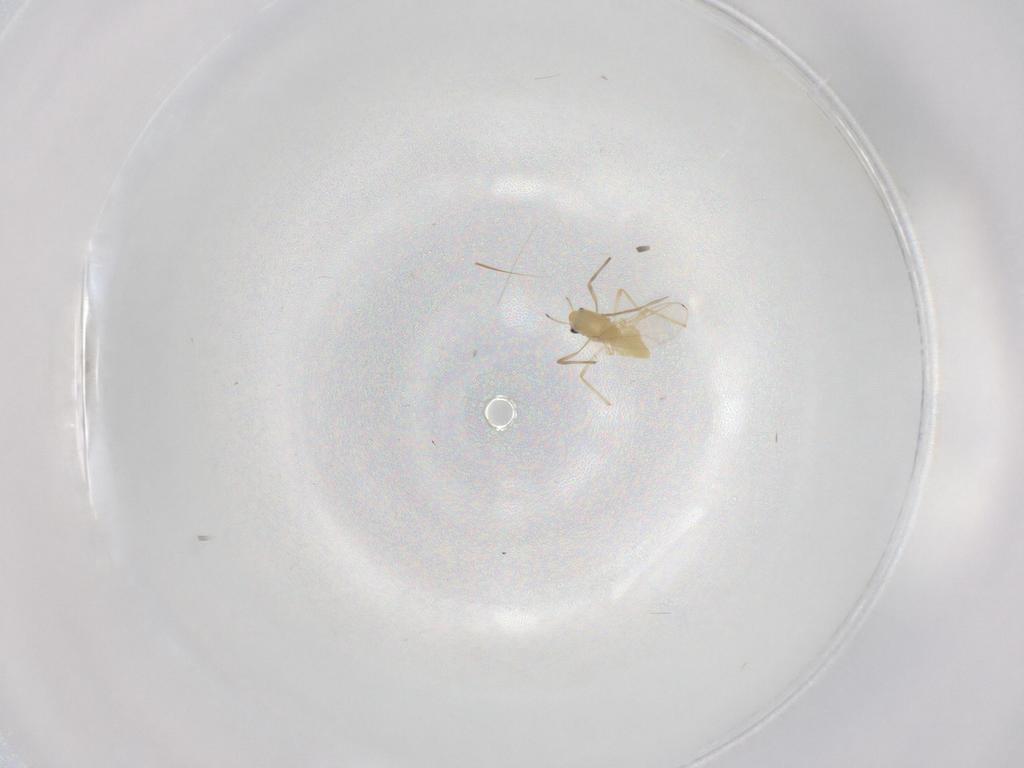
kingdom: Animalia
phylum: Arthropoda
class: Insecta
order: Diptera
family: Chironomidae
